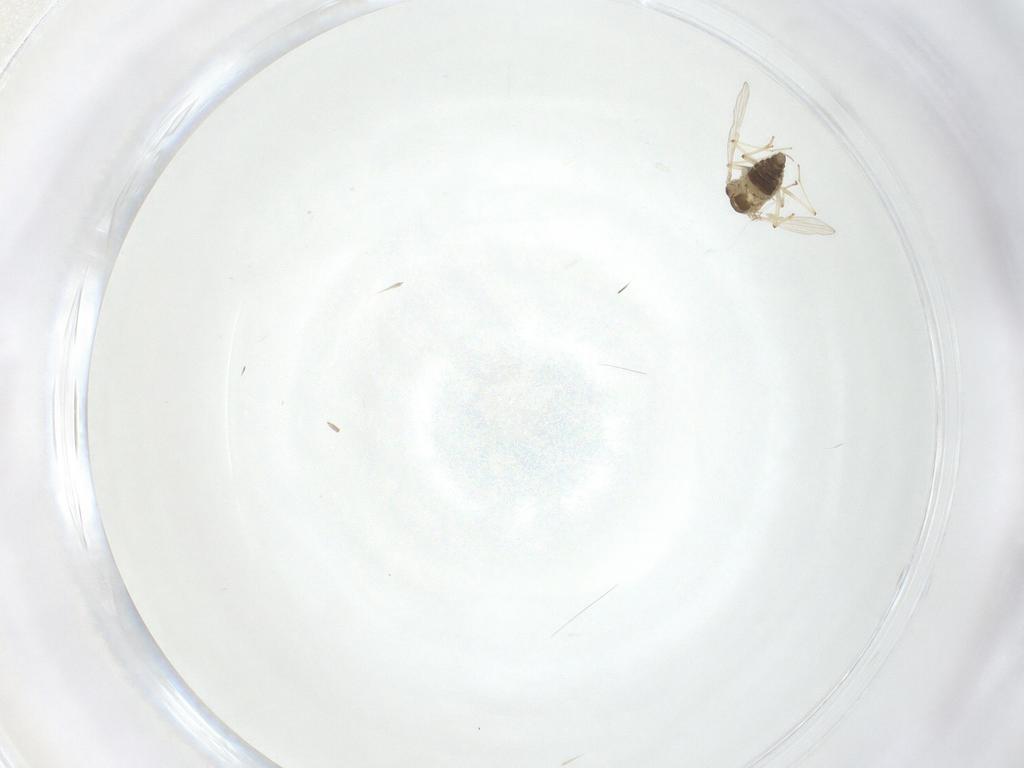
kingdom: Animalia
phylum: Arthropoda
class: Insecta
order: Diptera
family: Chironomidae
